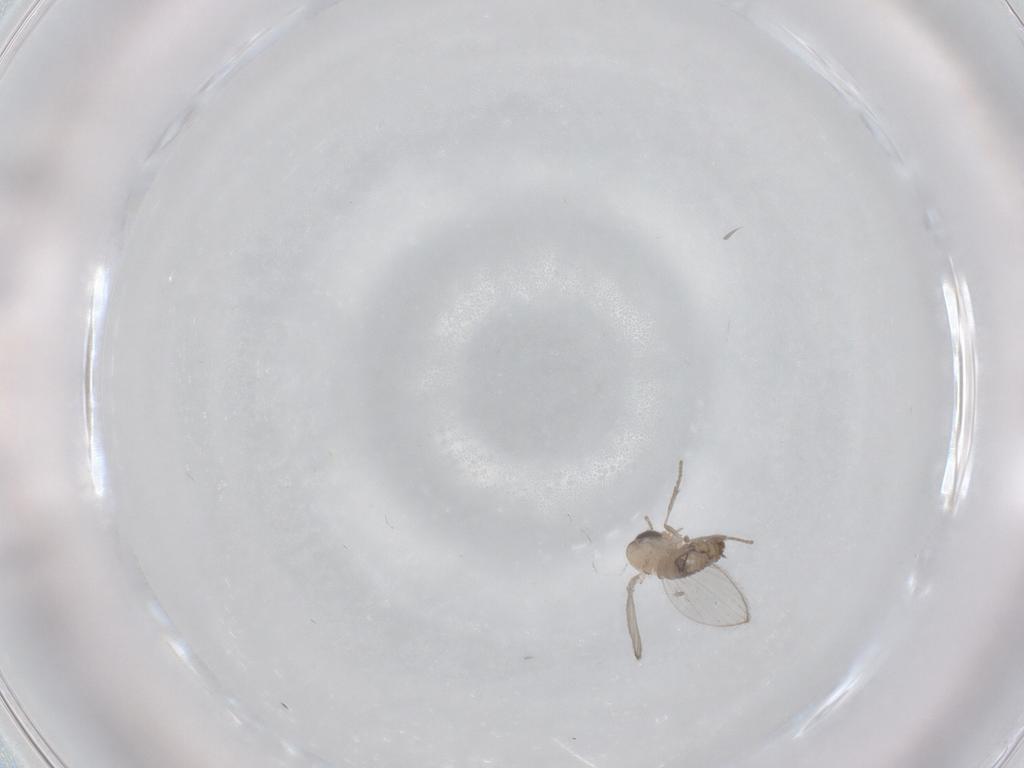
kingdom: Animalia
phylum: Arthropoda
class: Insecta
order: Diptera
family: Psychodidae
